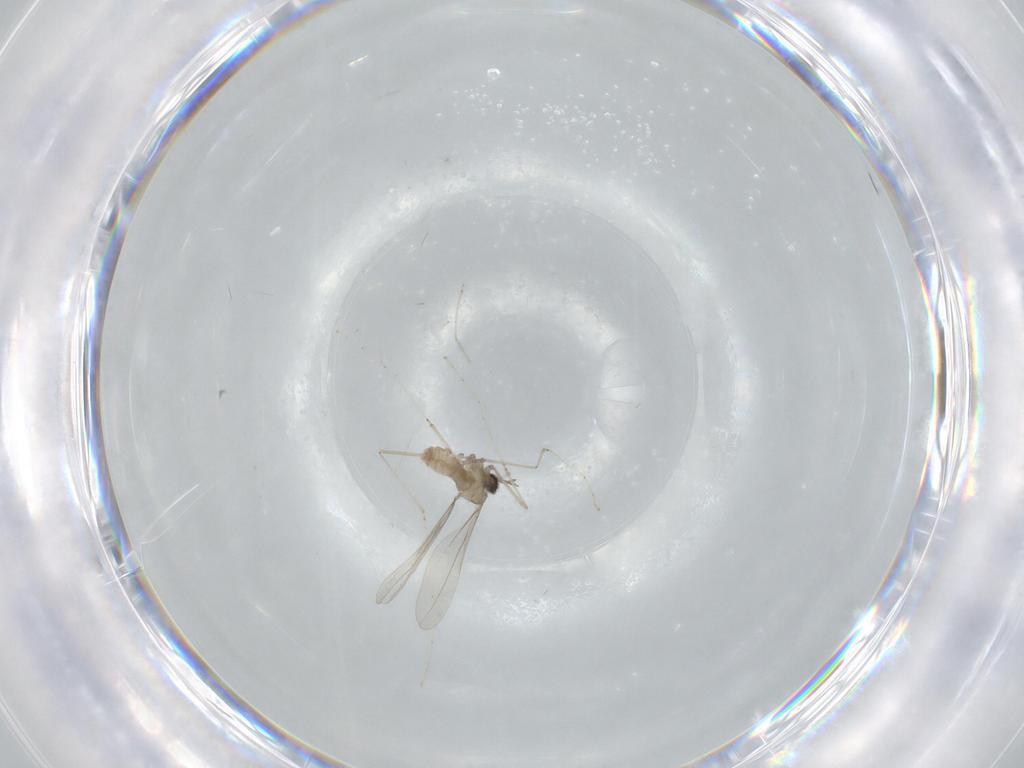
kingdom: Animalia
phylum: Arthropoda
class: Insecta
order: Diptera
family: Cecidomyiidae
